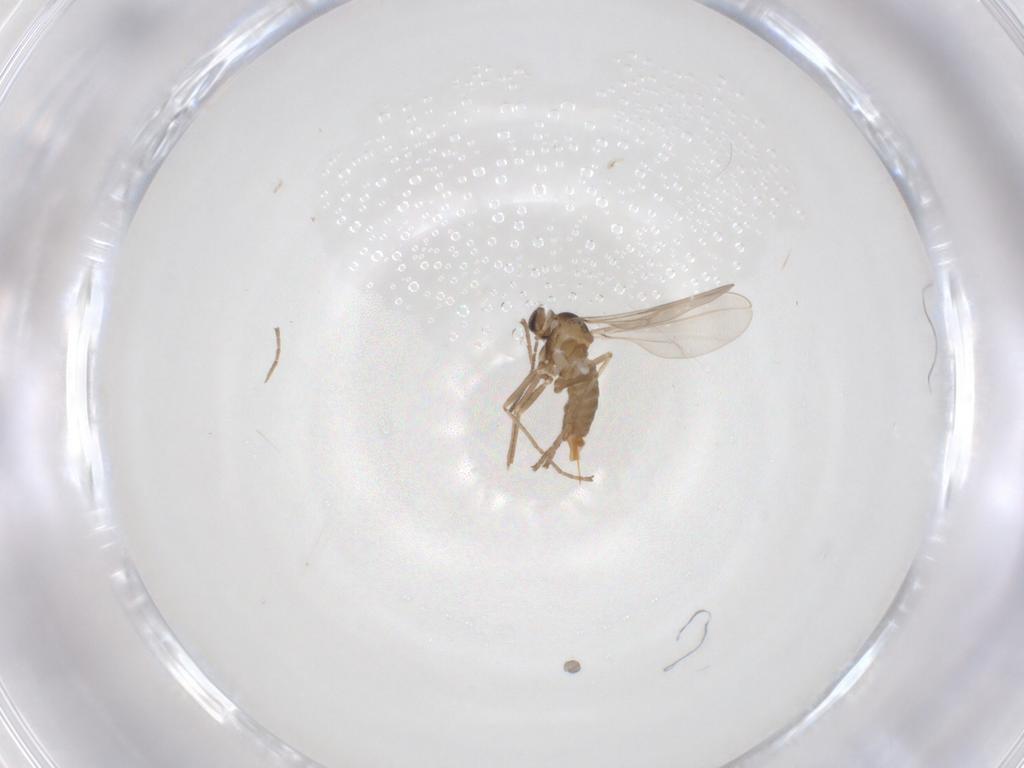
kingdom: Animalia
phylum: Arthropoda
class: Insecta
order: Diptera
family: Cecidomyiidae
